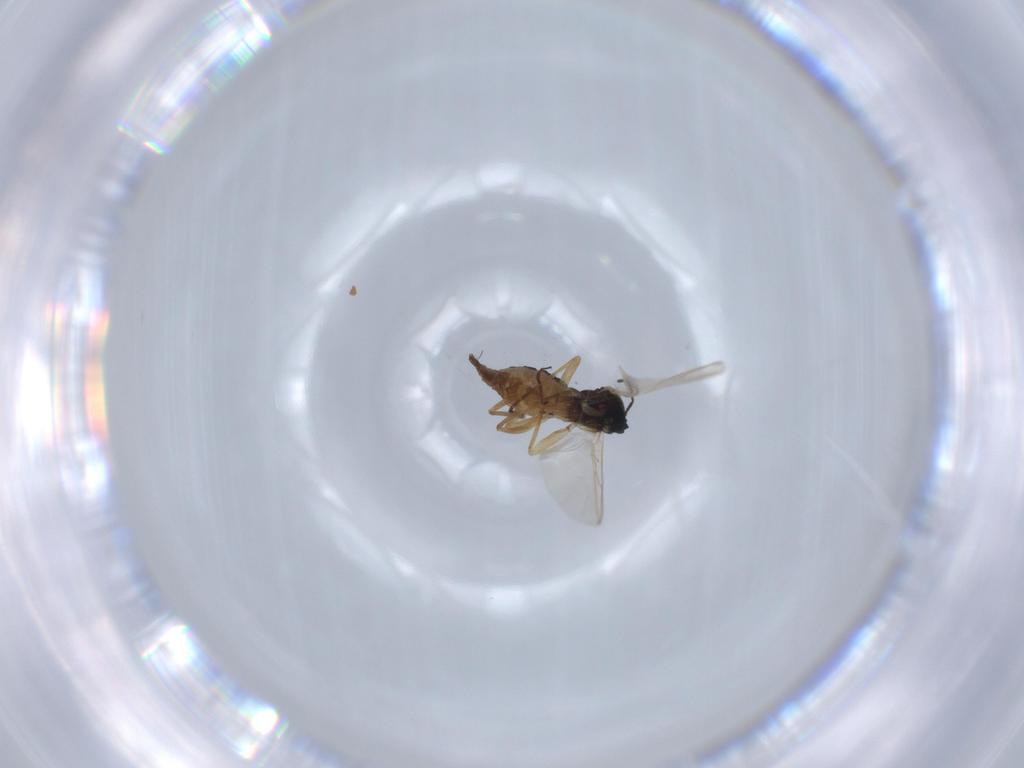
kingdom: Animalia
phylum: Arthropoda
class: Insecta
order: Diptera
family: Sciaridae
